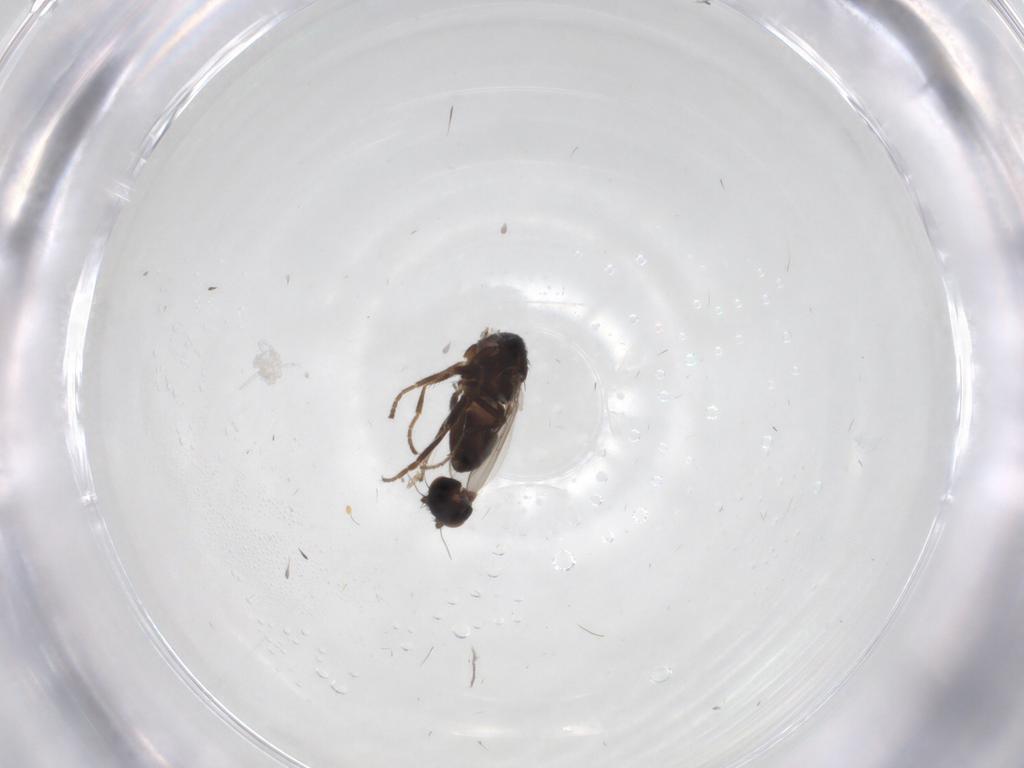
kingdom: Animalia
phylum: Arthropoda
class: Insecta
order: Diptera
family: Sphaeroceridae
